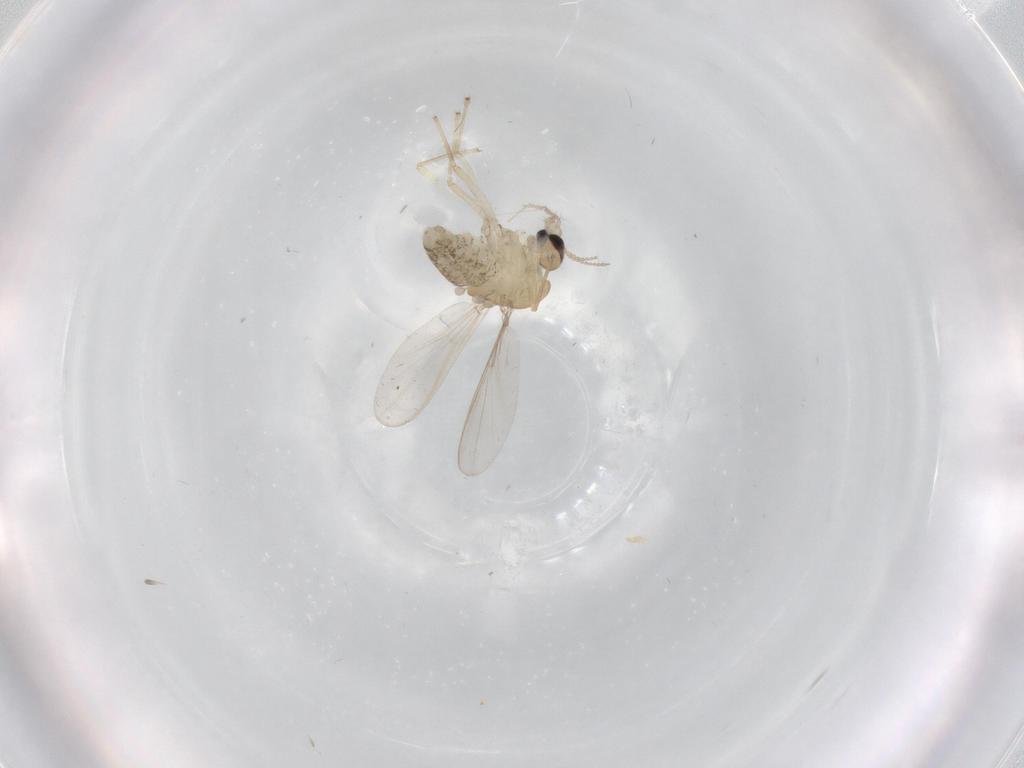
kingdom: Animalia
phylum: Arthropoda
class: Insecta
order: Diptera
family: Chironomidae
